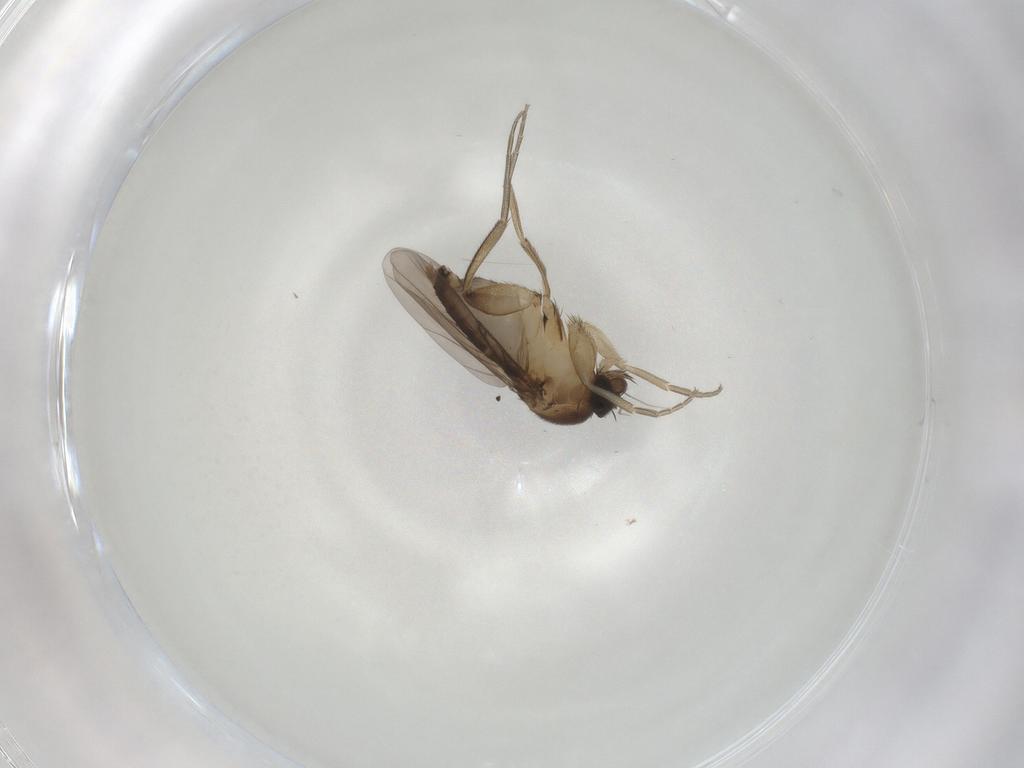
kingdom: Animalia
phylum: Arthropoda
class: Insecta
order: Diptera
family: Phoridae
